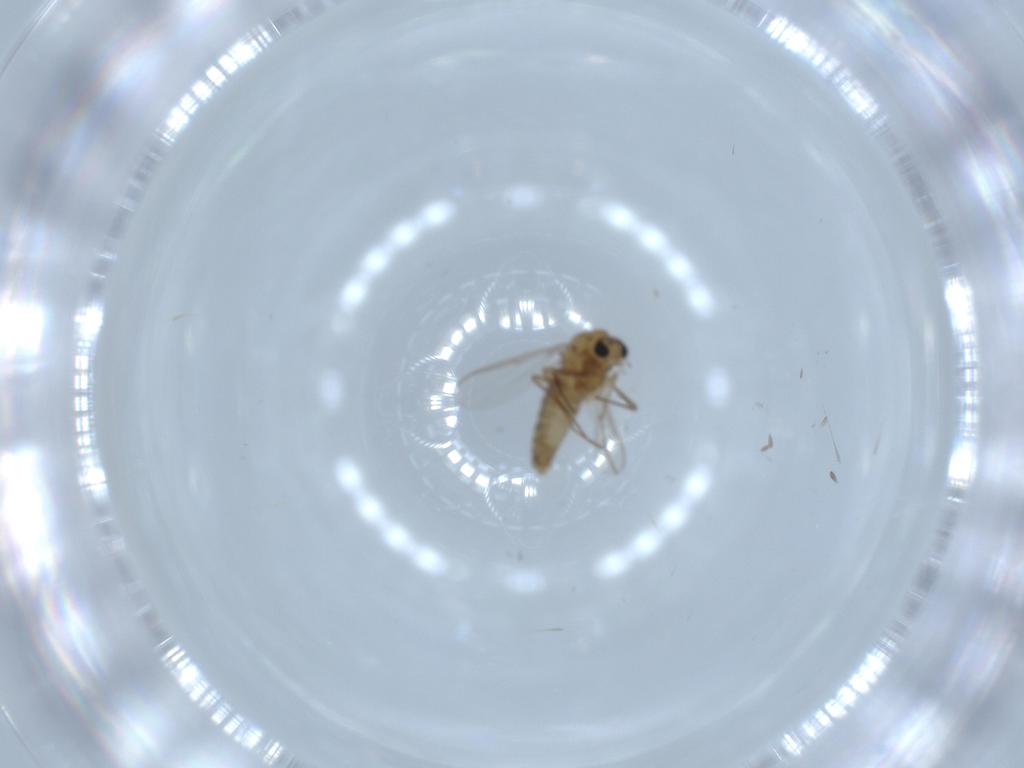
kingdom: Animalia
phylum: Arthropoda
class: Insecta
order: Diptera
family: Chironomidae
